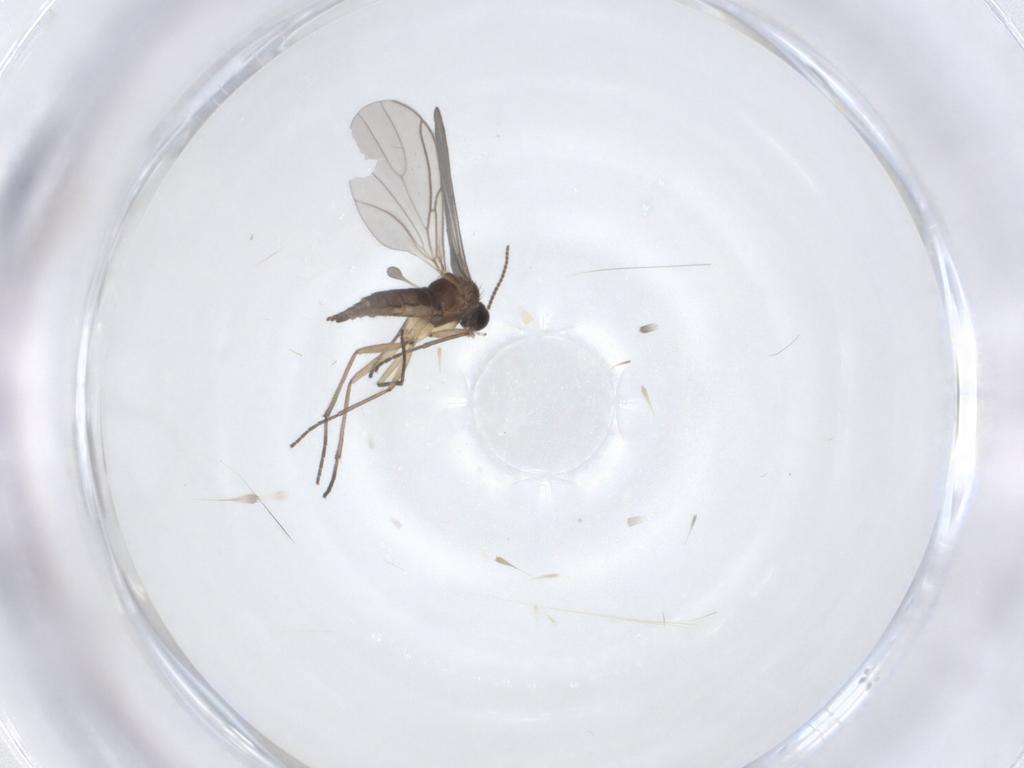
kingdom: Animalia
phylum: Arthropoda
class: Insecta
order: Diptera
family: Sciaridae
